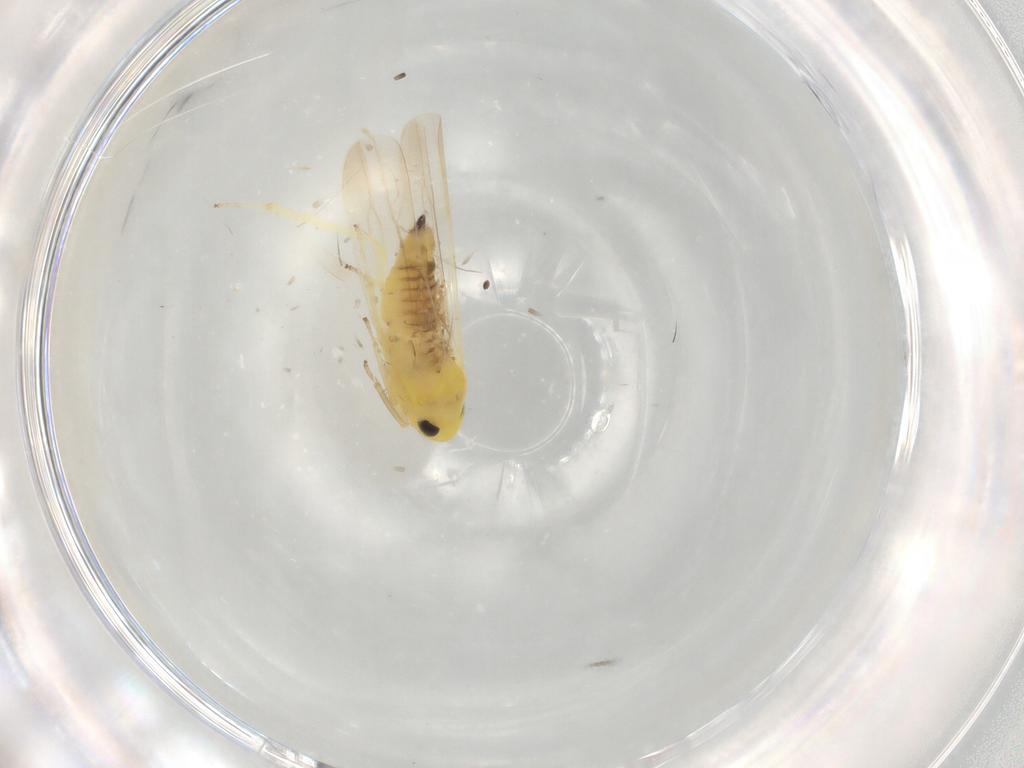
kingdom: Animalia
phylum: Arthropoda
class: Insecta
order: Hemiptera
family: Cicadellidae
